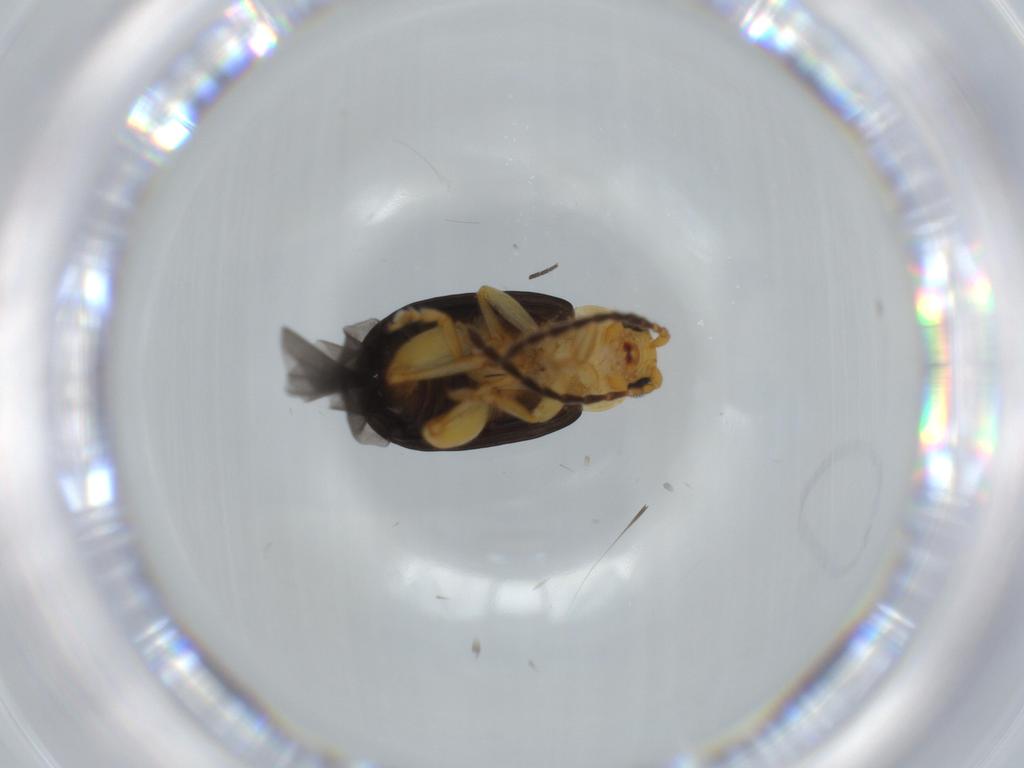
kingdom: Animalia
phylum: Arthropoda
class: Insecta
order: Coleoptera
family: Chrysomelidae
